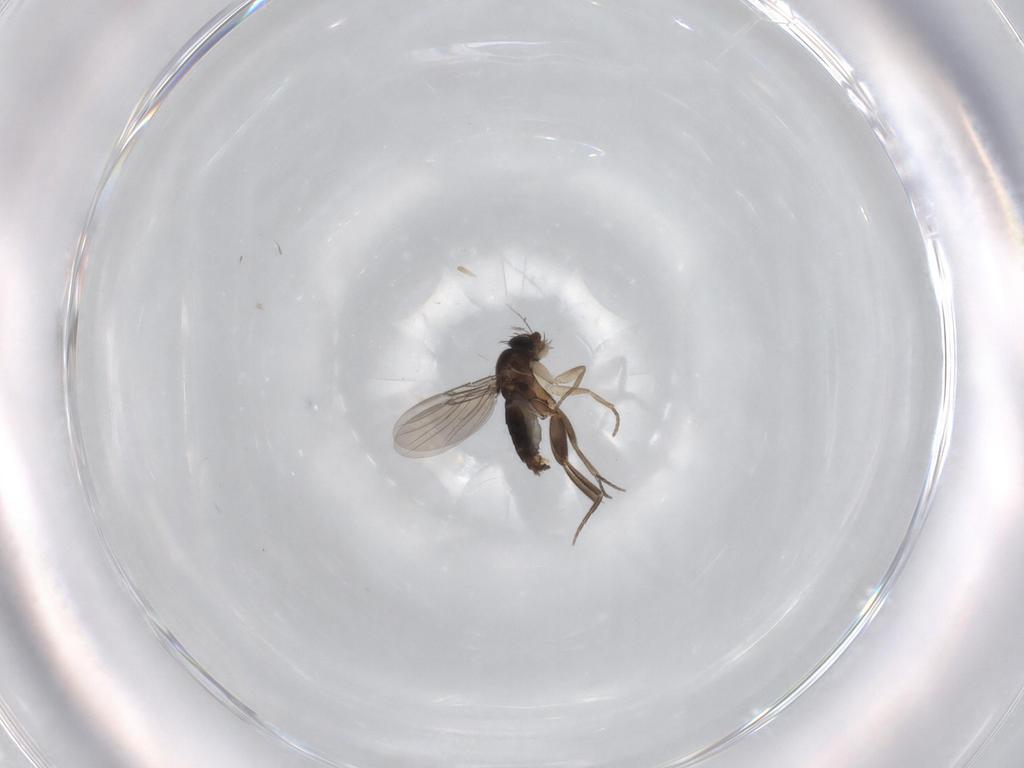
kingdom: Animalia
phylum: Arthropoda
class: Insecta
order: Diptera
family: Phoridae
